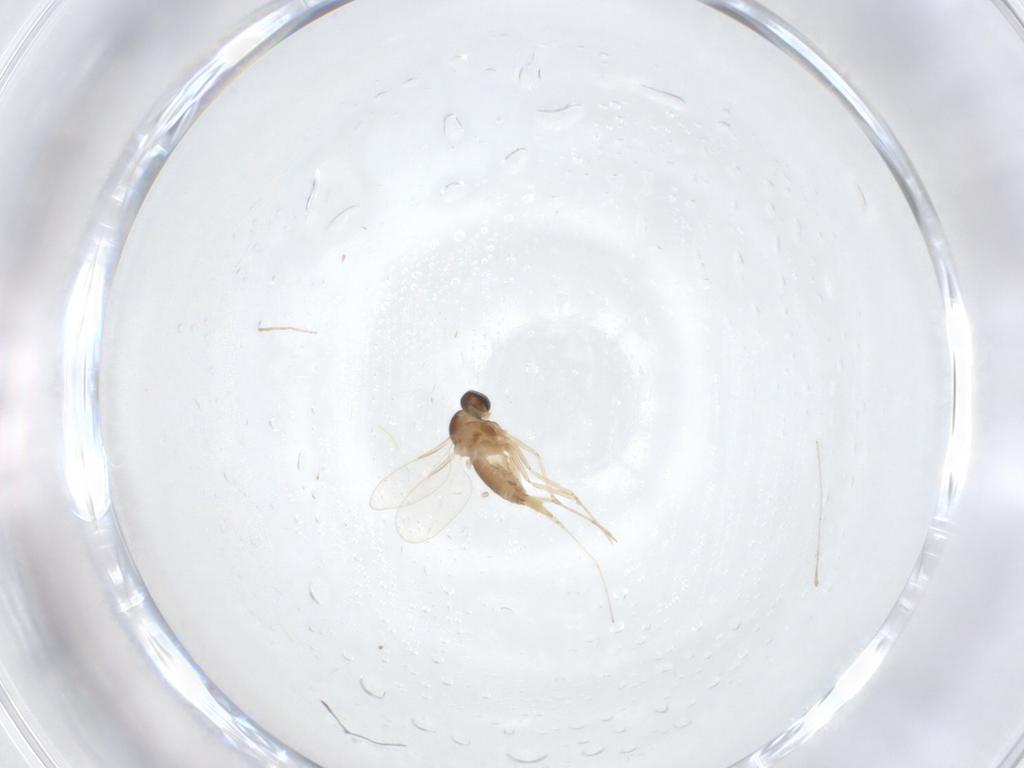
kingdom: Animalia
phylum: Arthropoda
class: Insecta
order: Diptera
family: Cecidomyiidae
